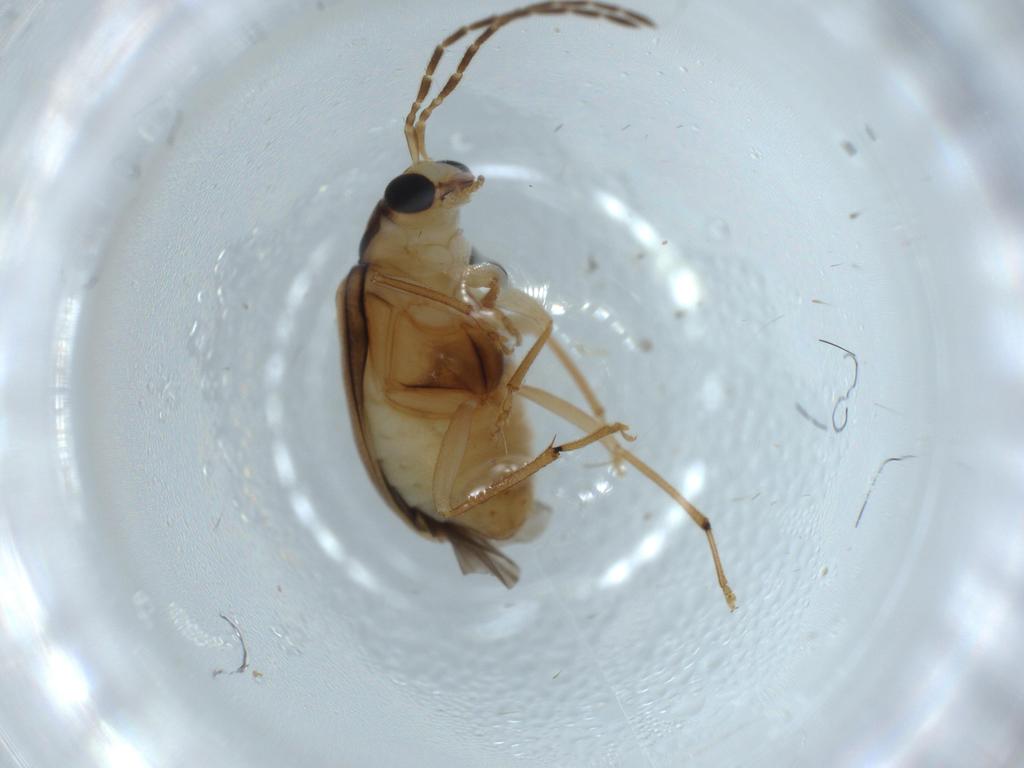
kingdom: Animalia
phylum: Arthropoda
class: Insecta
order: Coleoptera
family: Chrysomelidae
